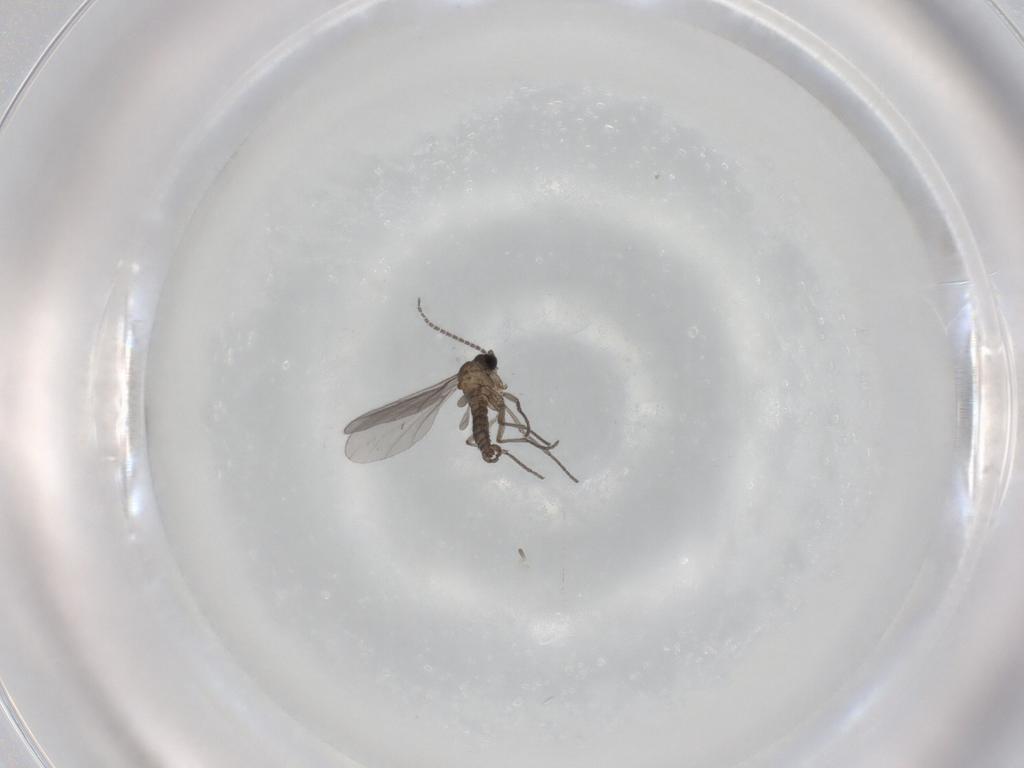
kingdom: Animalia
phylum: Arthropoda
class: Insecta
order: Diptera
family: Sciaridae
